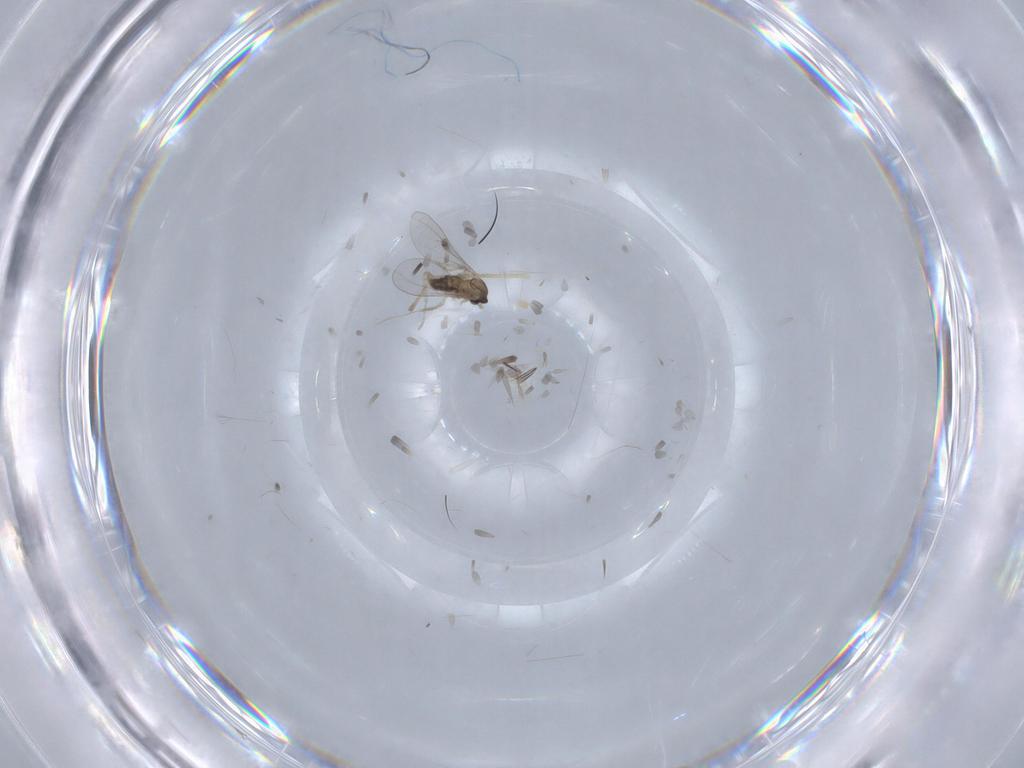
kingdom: Animalia
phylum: Arthropoda
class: Insecta
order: Diptera
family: Cecidomyiidae
